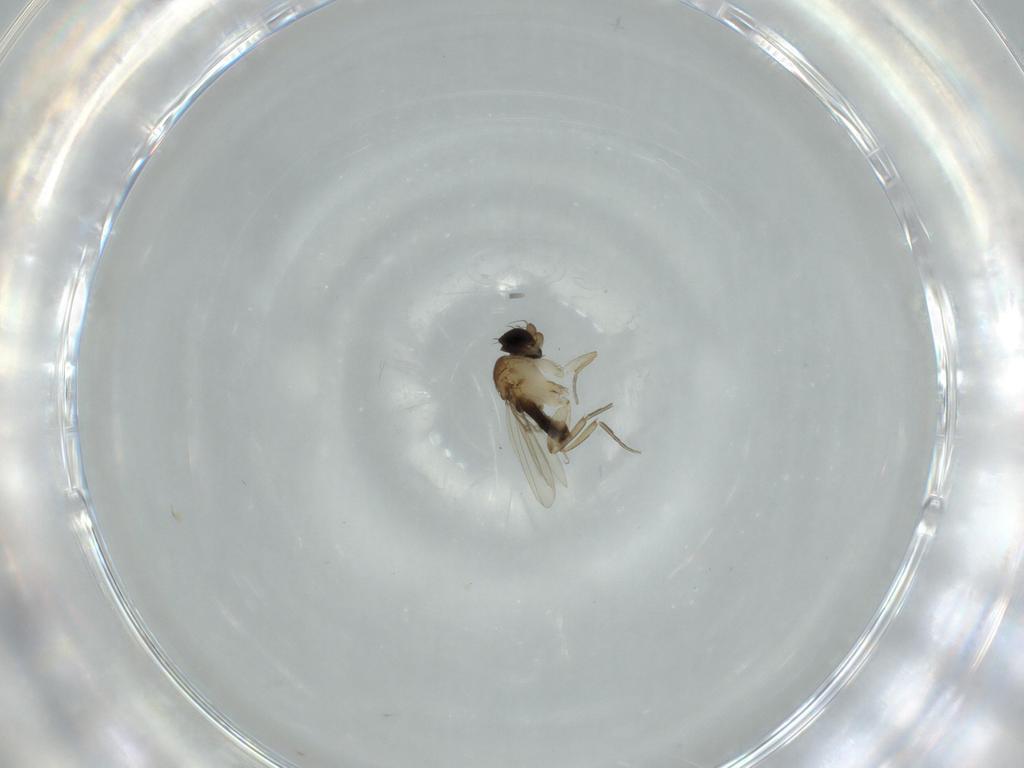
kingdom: Animalia
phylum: Arthropoda
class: Insecta
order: Diptera
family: Phoridae
